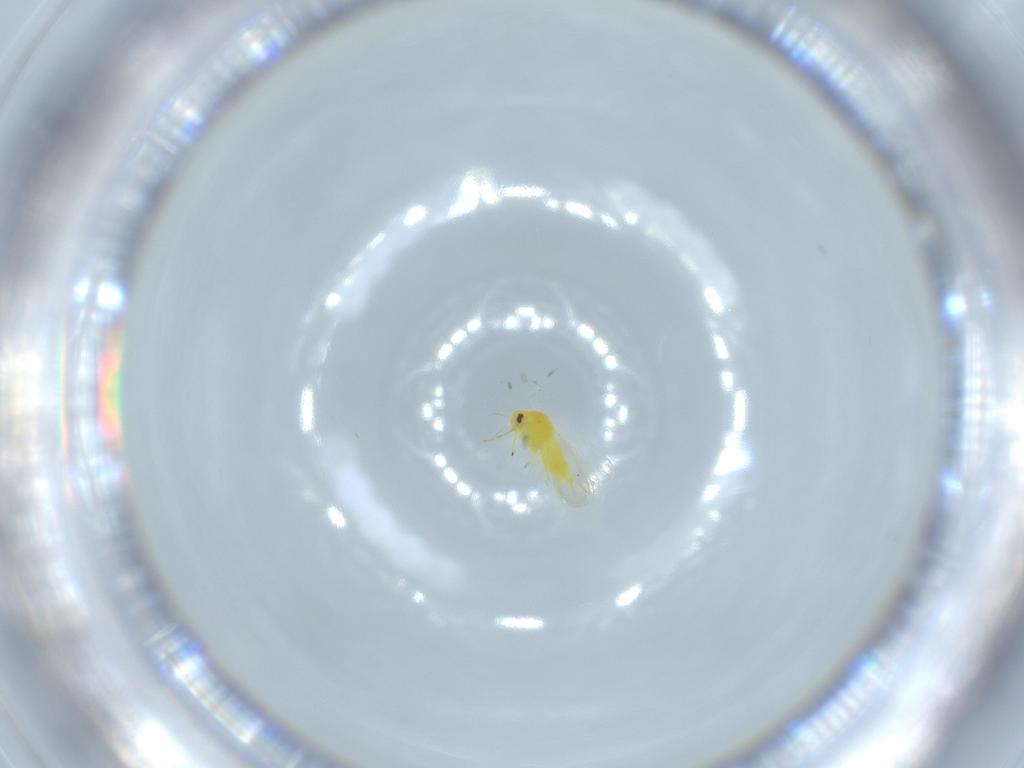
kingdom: Animalia
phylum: Arthropoda
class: Insecta
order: Hemiptera
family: Aleyrodidae
